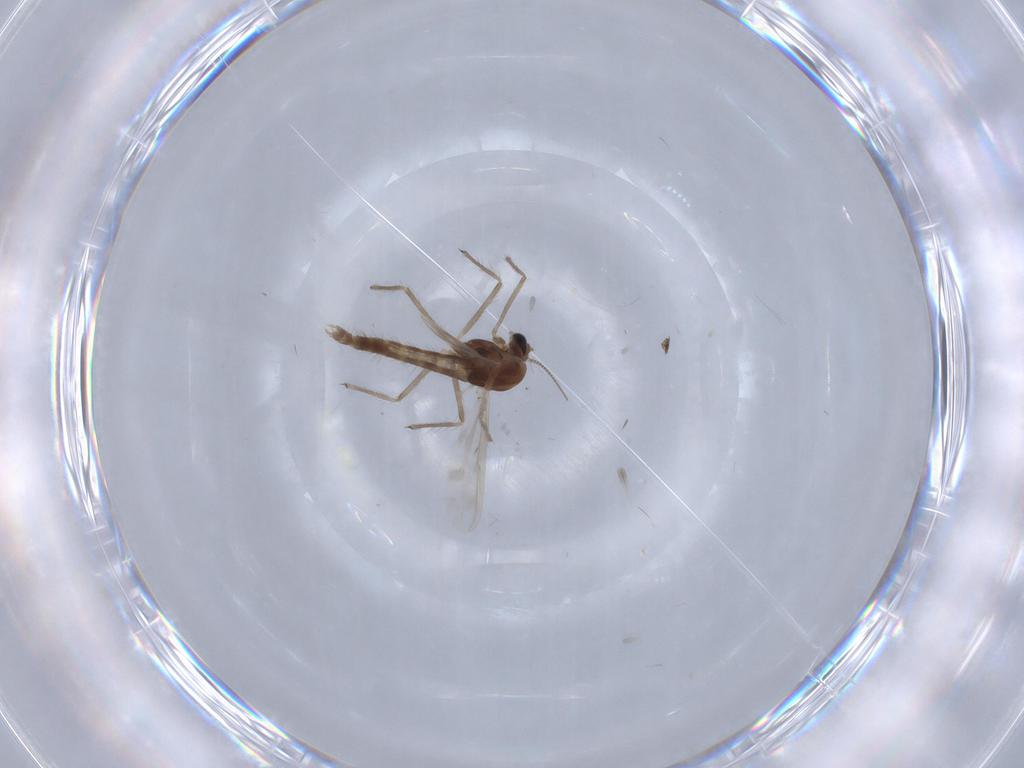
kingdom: Animalia
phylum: Arthropoda
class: Insecta
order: Diptera
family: Chironomidae
